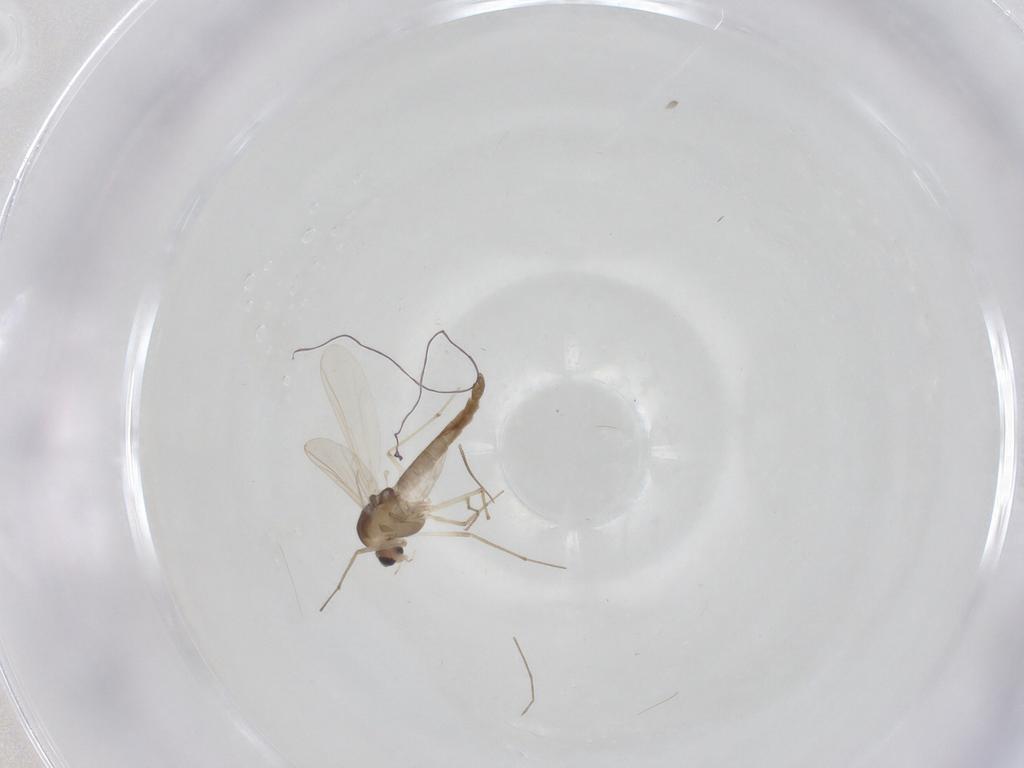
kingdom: Animalia
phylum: Arthropoda
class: Insecta
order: Diptera
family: Chironomidae
